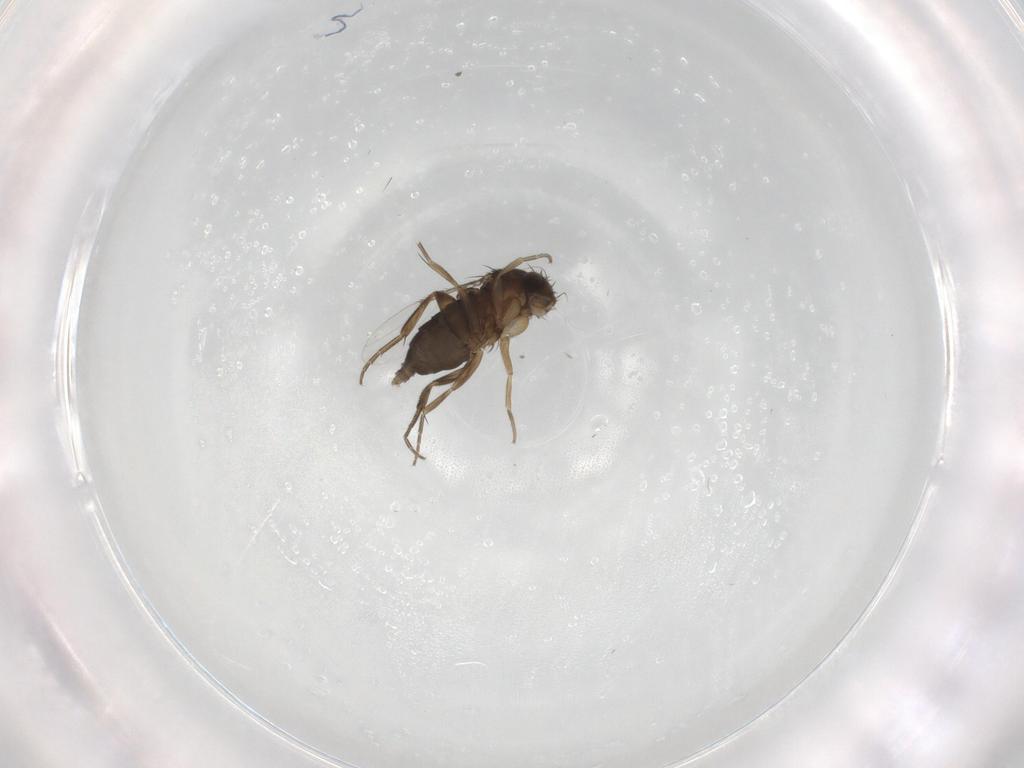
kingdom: Animalia
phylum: Arthropoda
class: Insecta
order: Diptera
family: Phoridae
